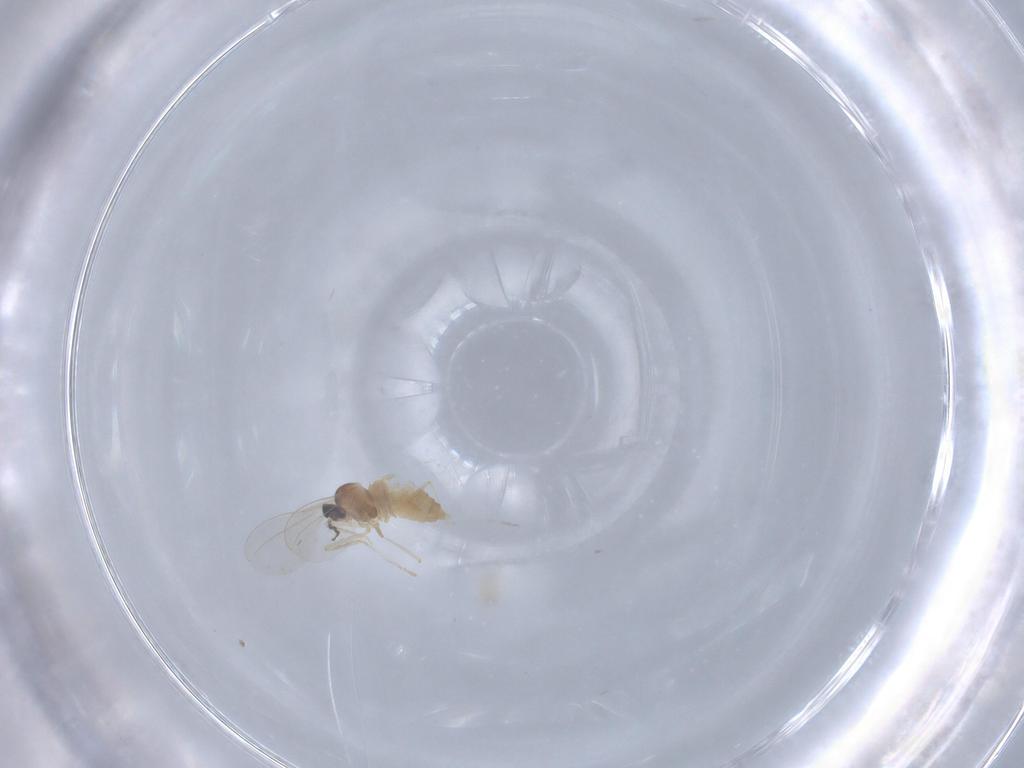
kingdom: Animalia
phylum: Arthropoda
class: Insecta
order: Diptera
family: Cecidomyiidae
